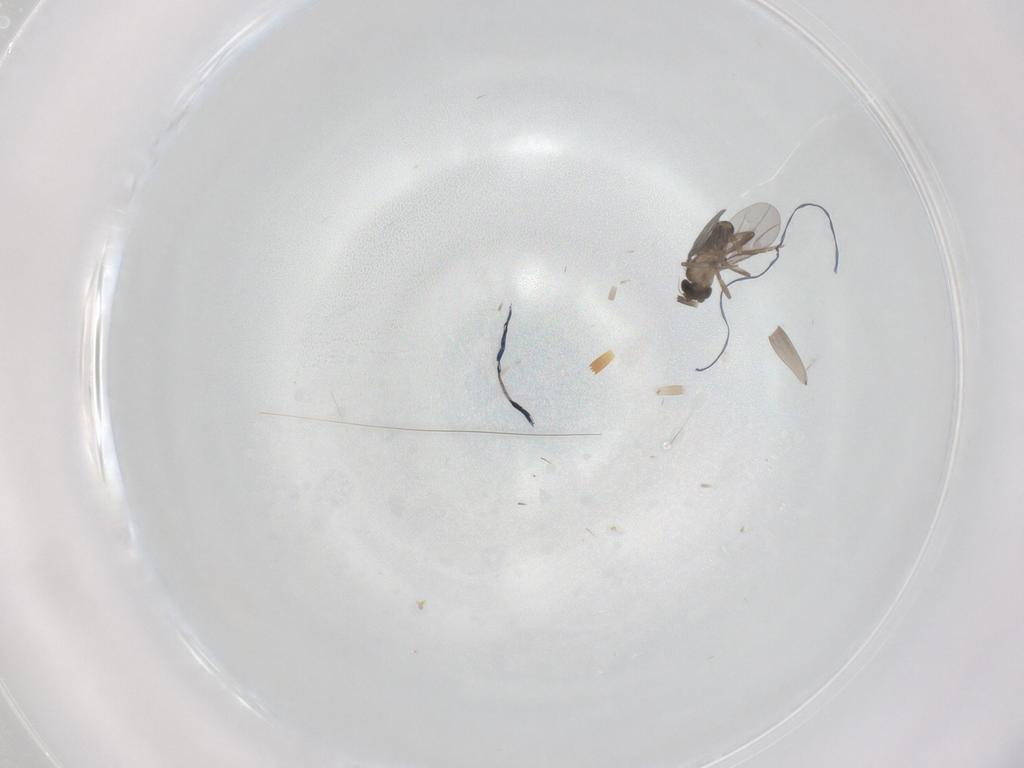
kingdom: Animalia
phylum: Arthropoda
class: Insecta
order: Diptera
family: Phoridae
